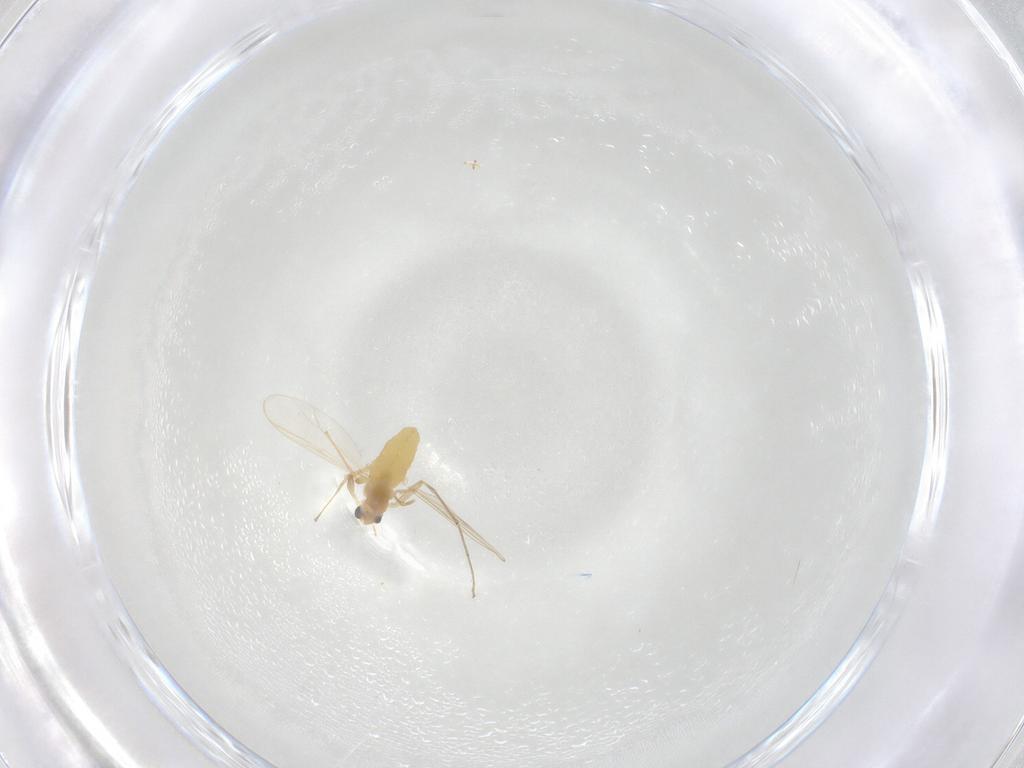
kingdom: Animalia
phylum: Arthropoda
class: Insecta
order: Diptera
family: Chironomidae
